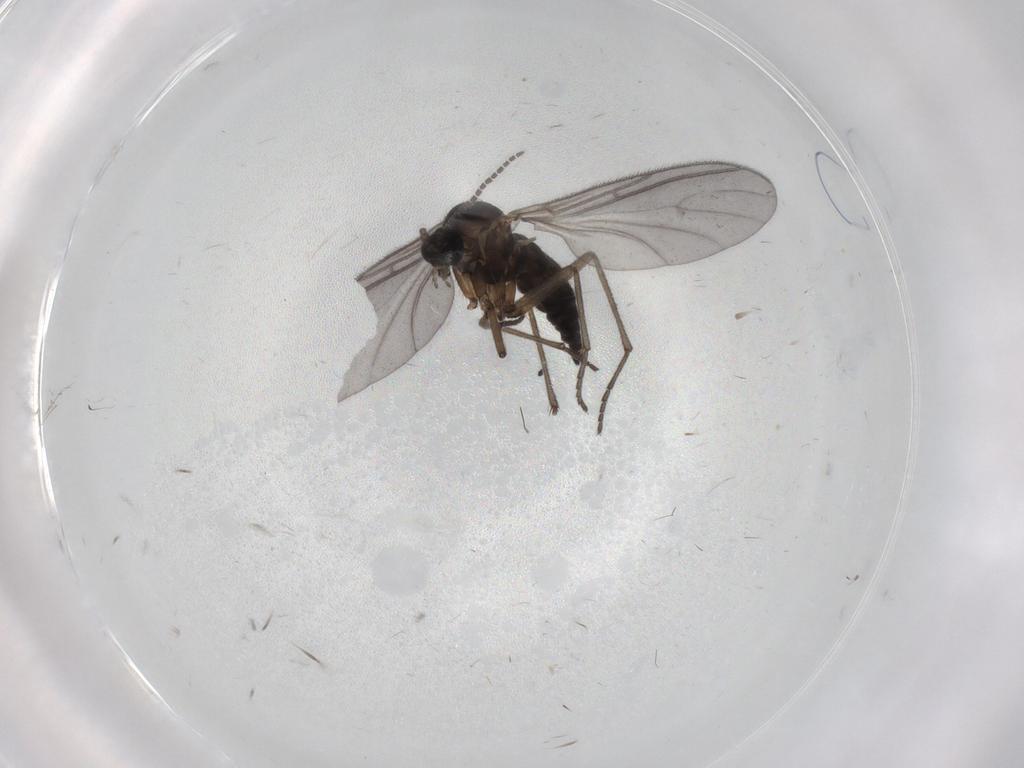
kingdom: Animalia
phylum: Arthropoda
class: Insecta
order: Diptera
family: Sciaridae
